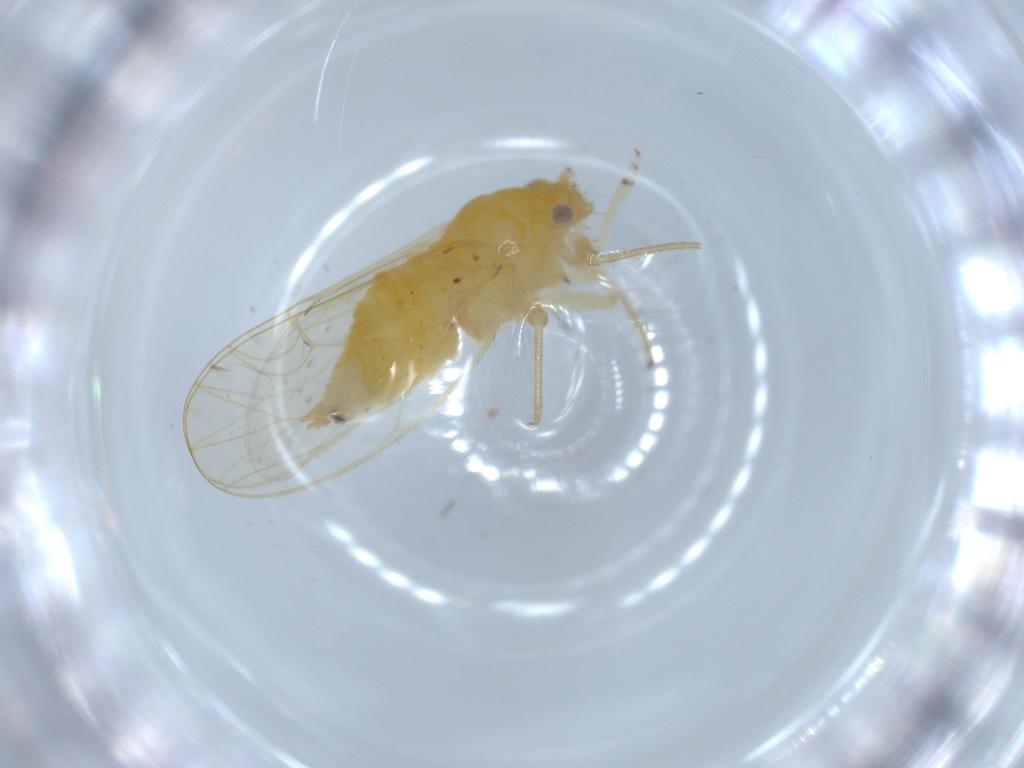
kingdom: Animalia
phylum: Arthropoda
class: Insecta
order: Hemiptera
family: Psyllidae
